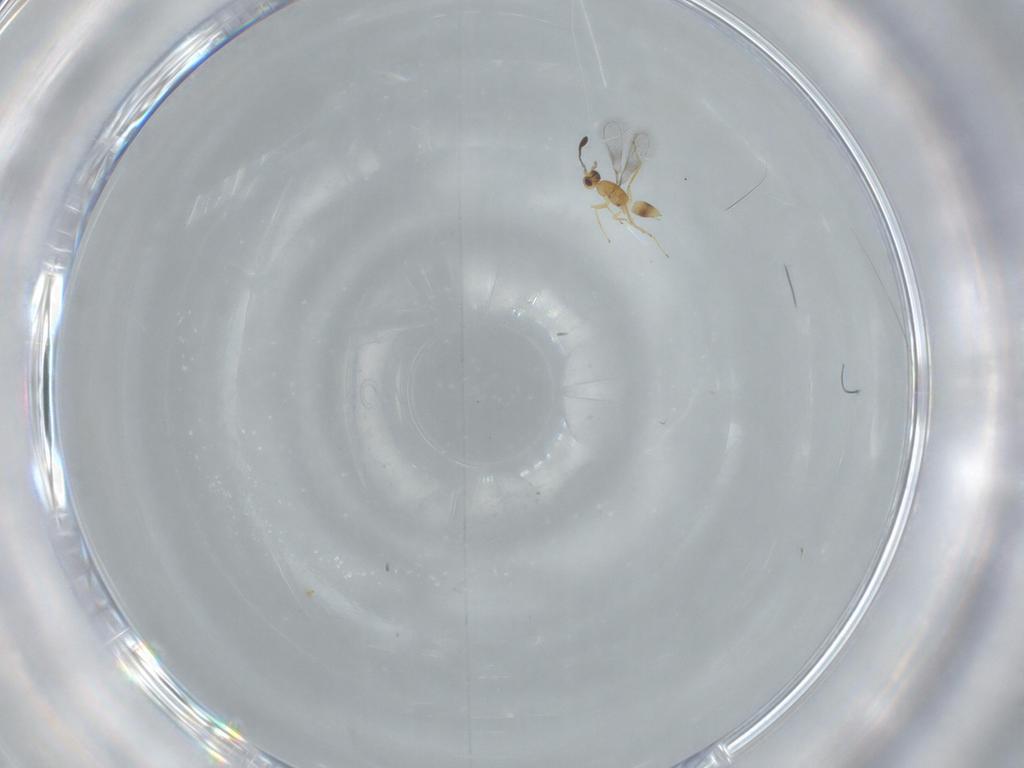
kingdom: Animalia
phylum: Arthropoda
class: Insecta
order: Hymenoptera
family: Mymaridae
